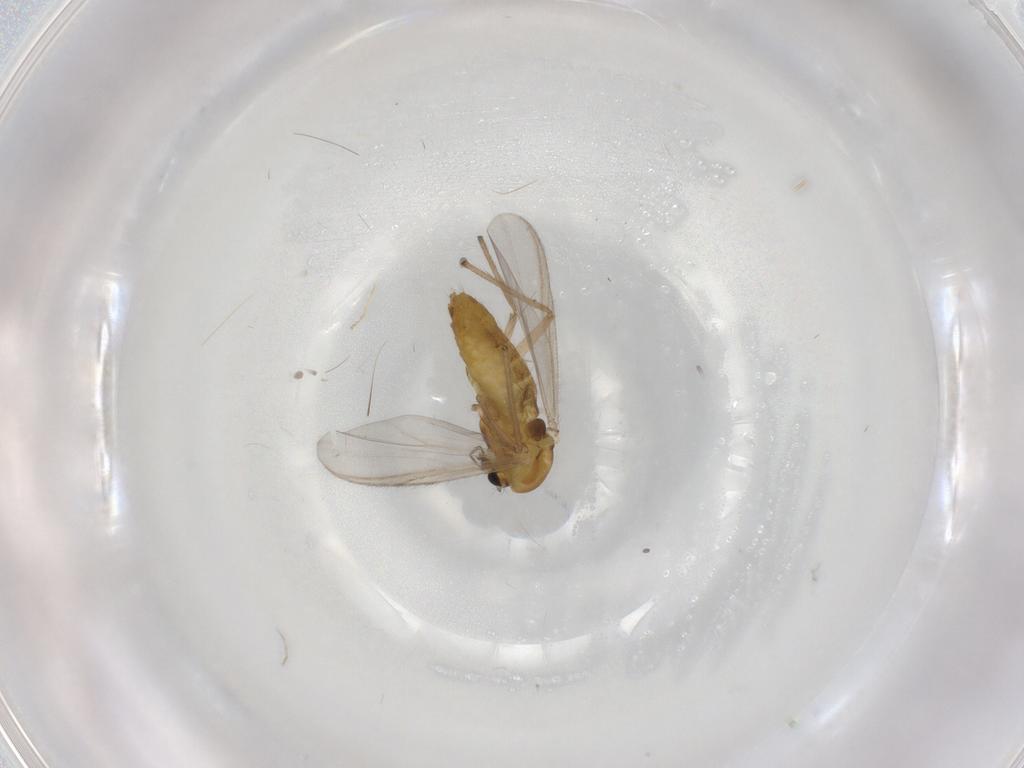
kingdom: Animalia
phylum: Arthropoda
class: Insecta
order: Diptera
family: Chironomidae
